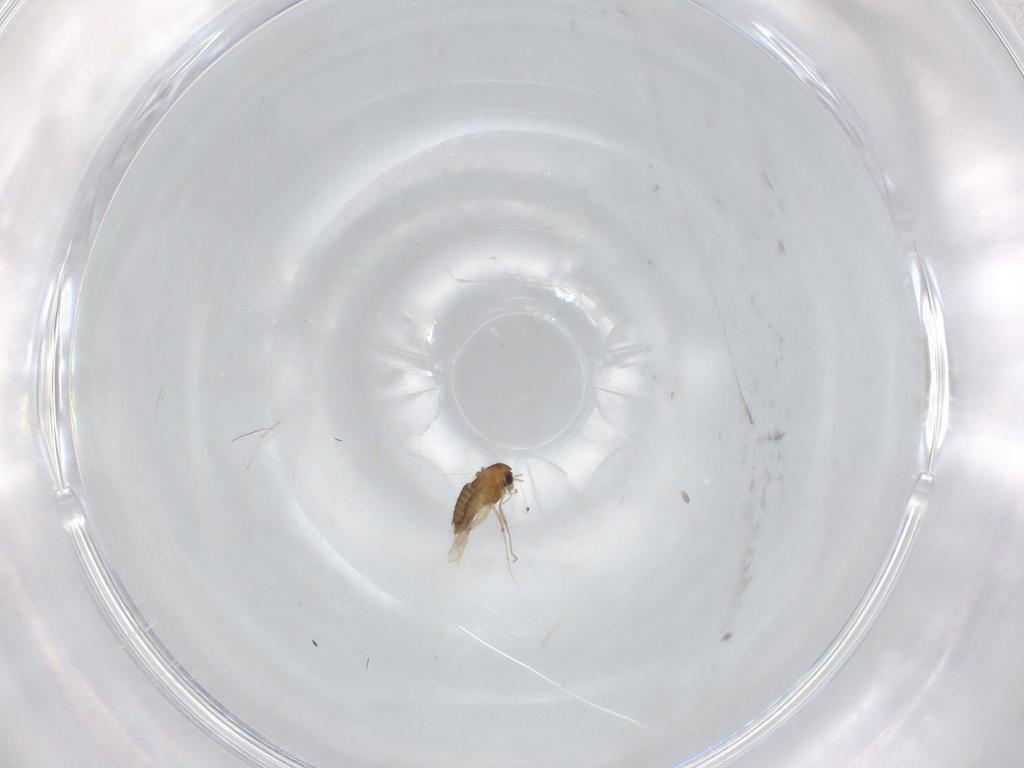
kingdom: Animalia
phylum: Arthropoda
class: Insecta
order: Diptera
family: Chironomidae
